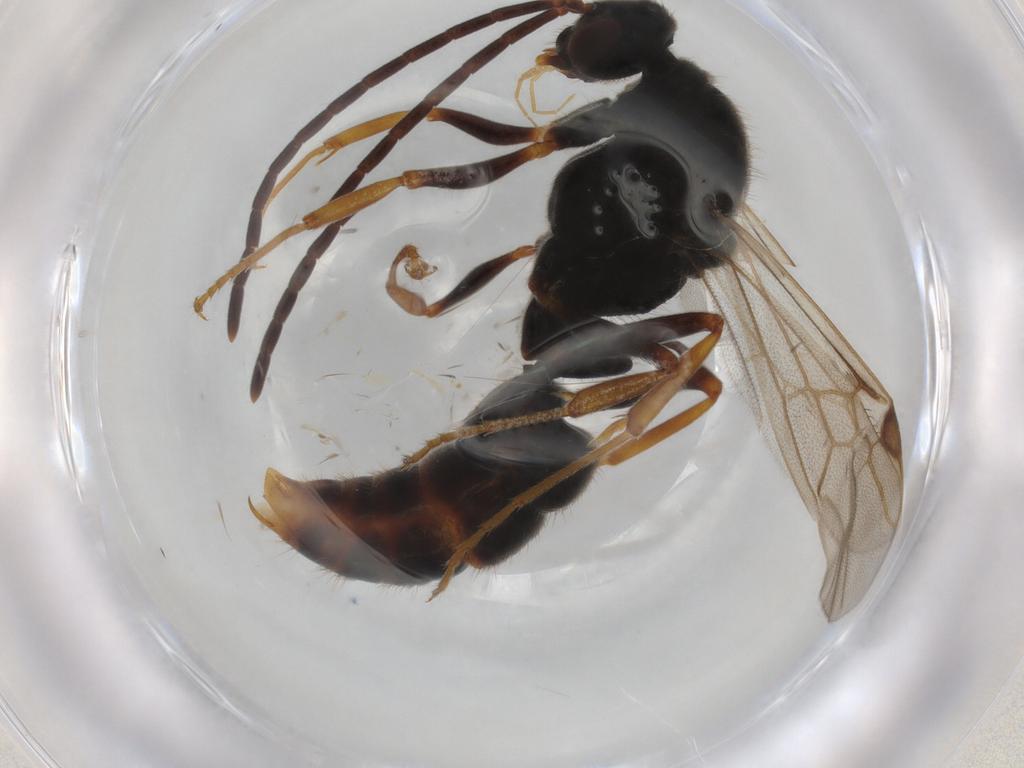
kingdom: Animalia
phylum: Arthropoda
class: Insecta
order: Hymenoptera
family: Formicidae
